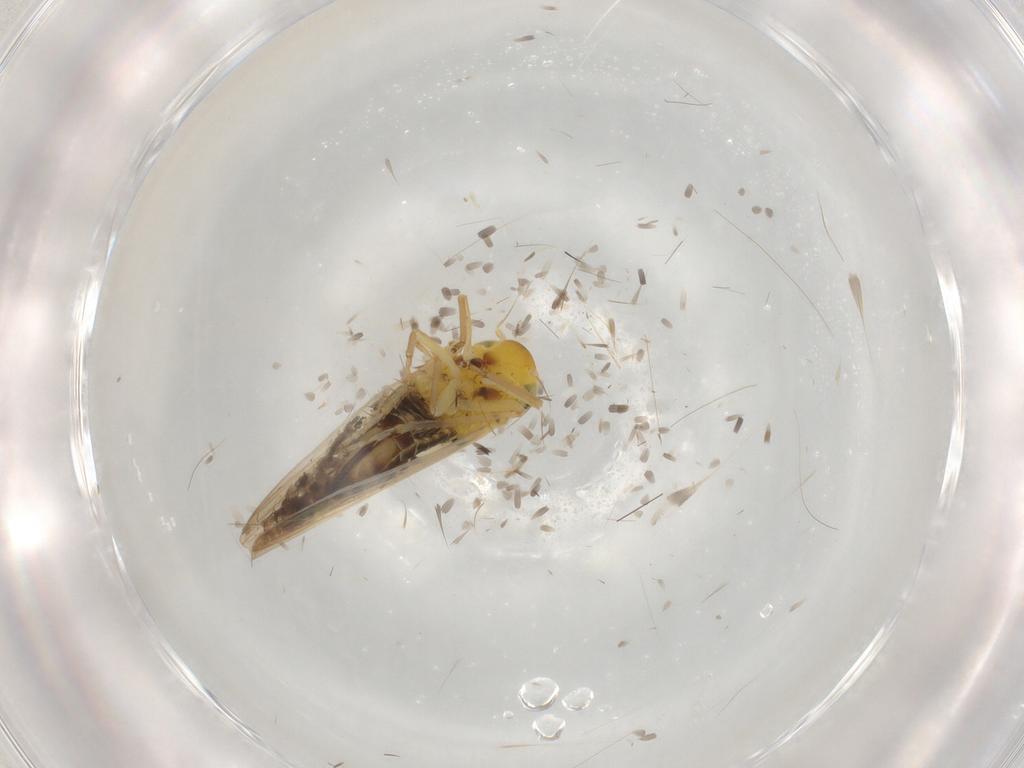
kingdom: Animalia
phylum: Arthropoda
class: Insecta
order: Hemiptera
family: Cicadellidae
